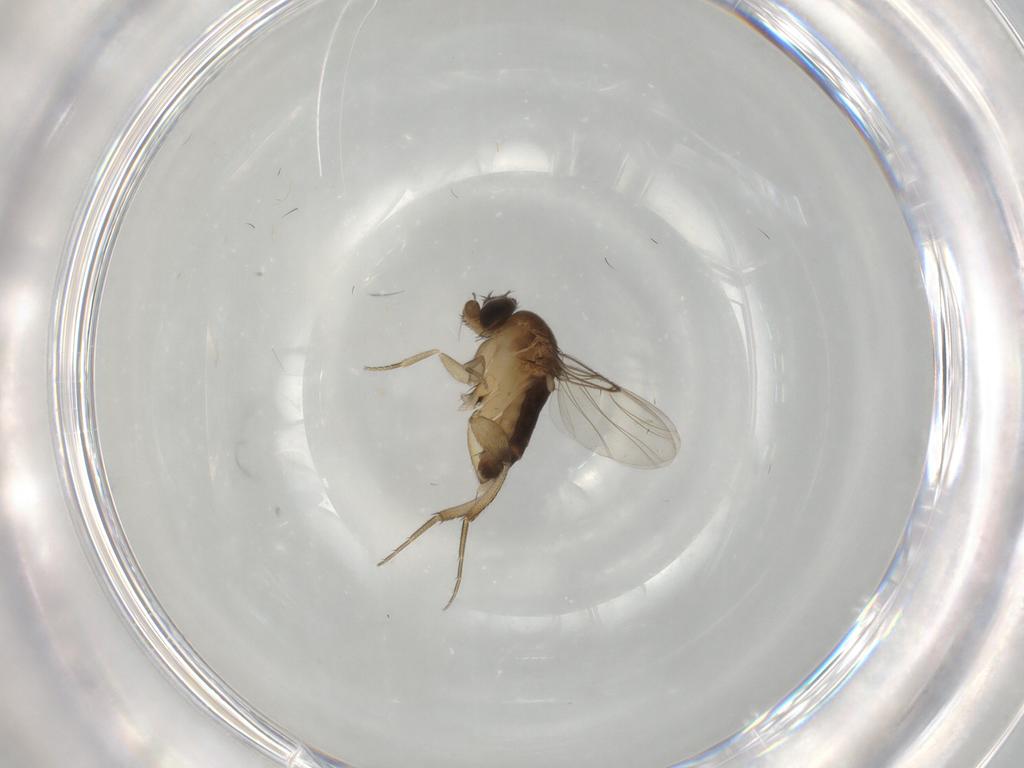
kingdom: Animalia
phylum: Arthropoda
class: Insecta
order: Diptera
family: Phoridae
